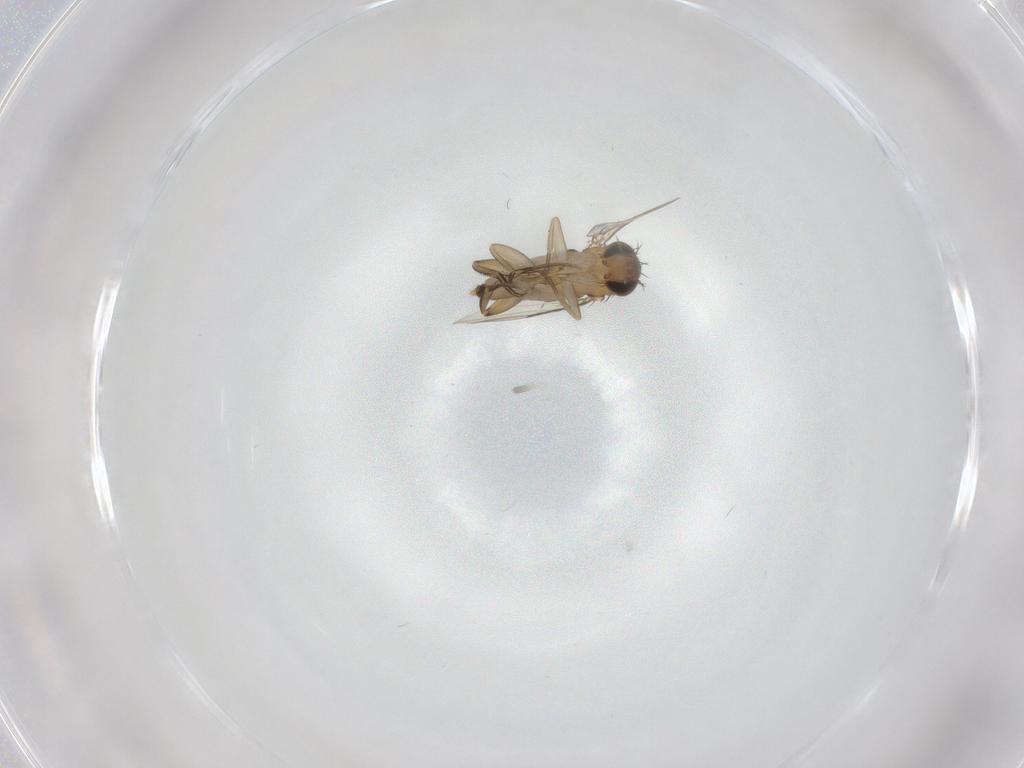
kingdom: Animalia
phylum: Arthropoda
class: Insecta
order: Diptera
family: Phoridae
